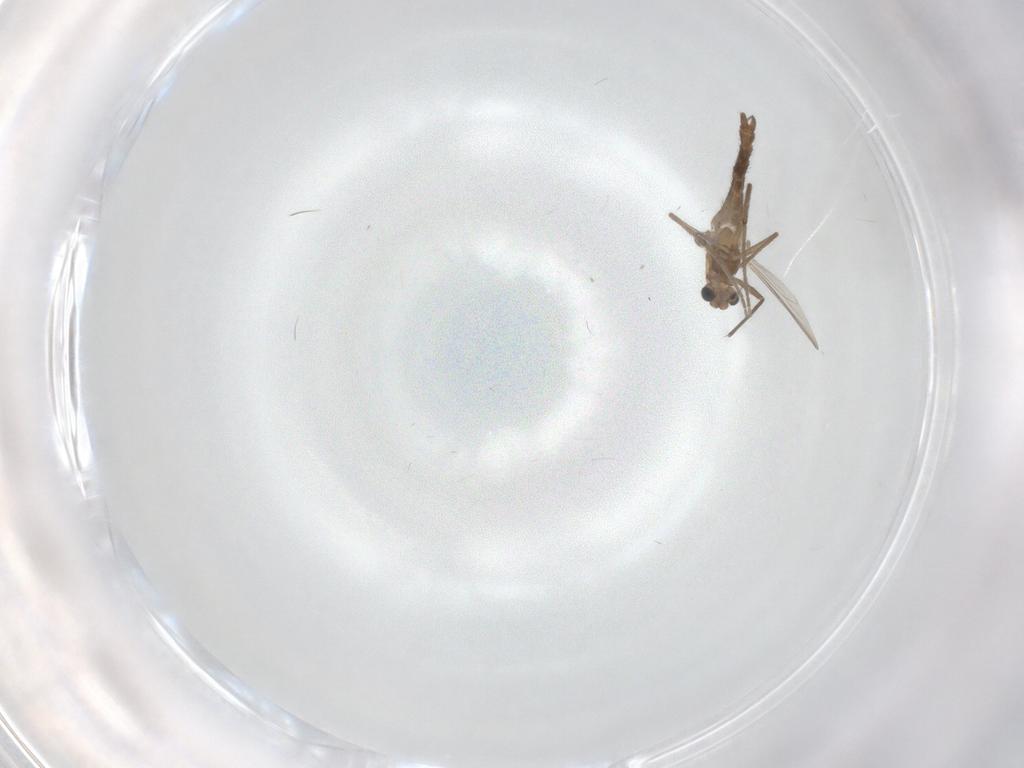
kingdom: Animalia
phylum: Arthropoda
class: Insecta
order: Diptera
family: Chironomidae
